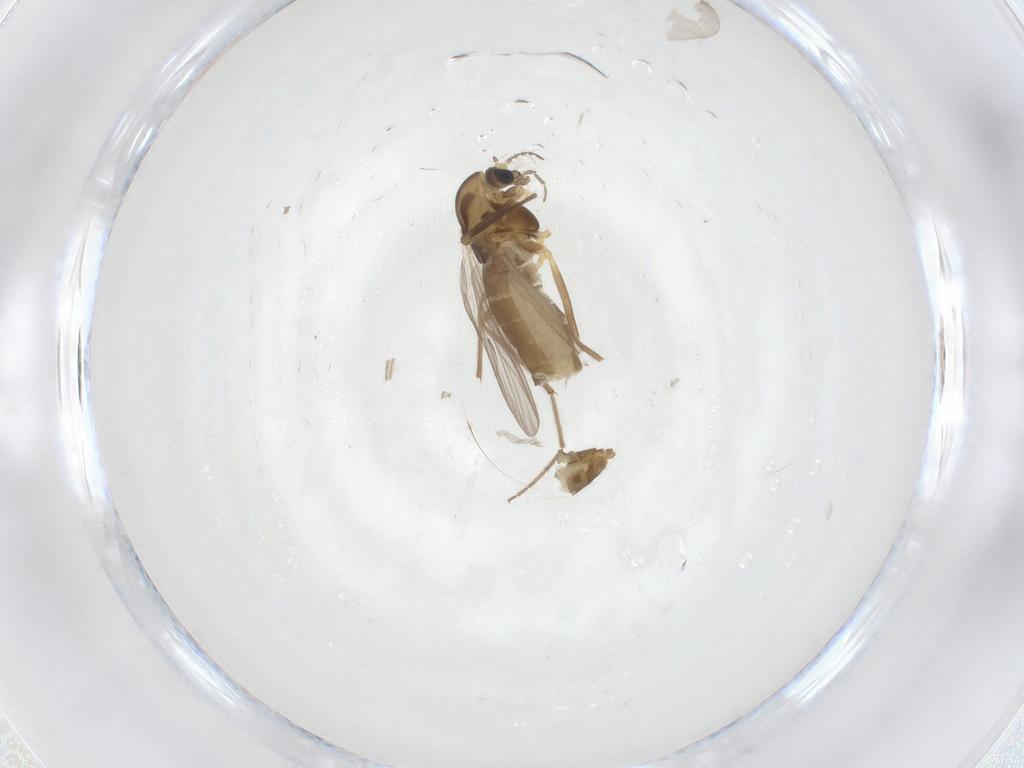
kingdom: Animalia
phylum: Arthropoda
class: Insecta
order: Diptera
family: Chironomidae
